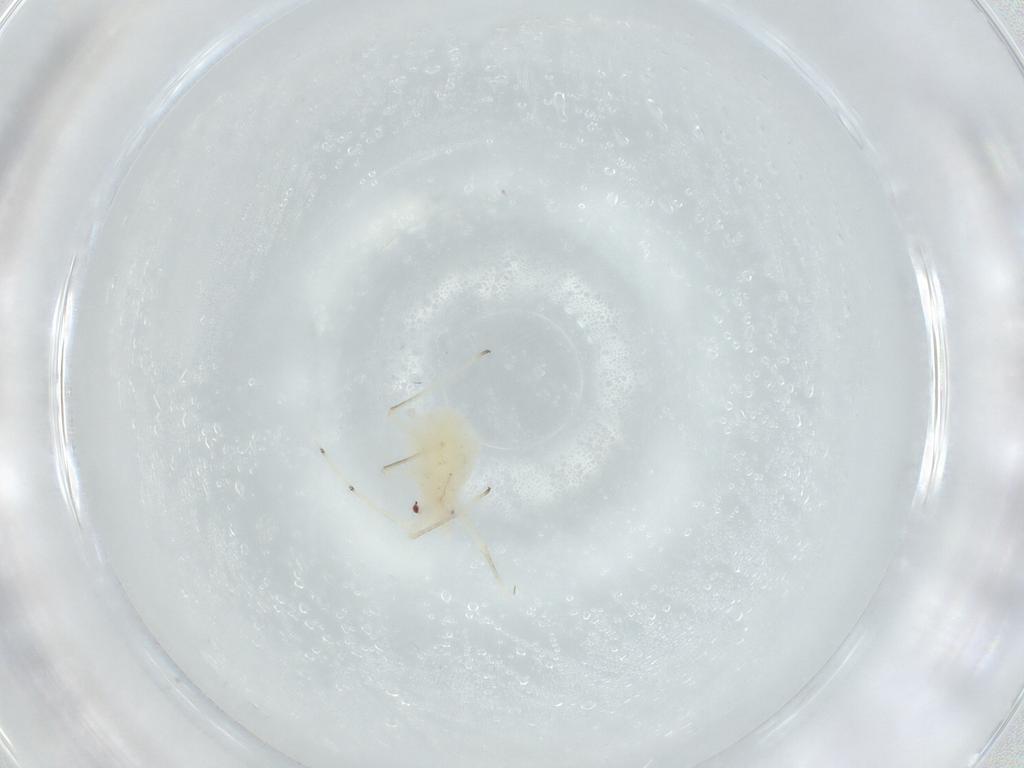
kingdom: Animalia
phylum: Arthropoda
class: Insecta
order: Hemiptera
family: Aphididae
